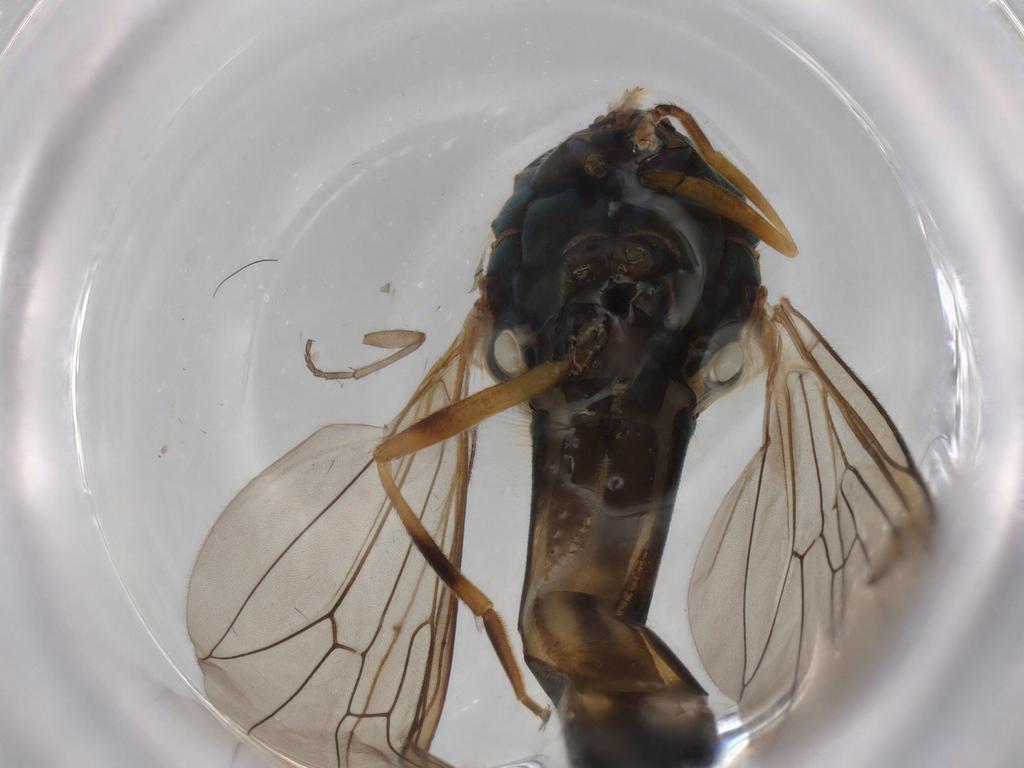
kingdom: Animalia
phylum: Arthropoda
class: Insecta
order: Diptera
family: Syrphidae
